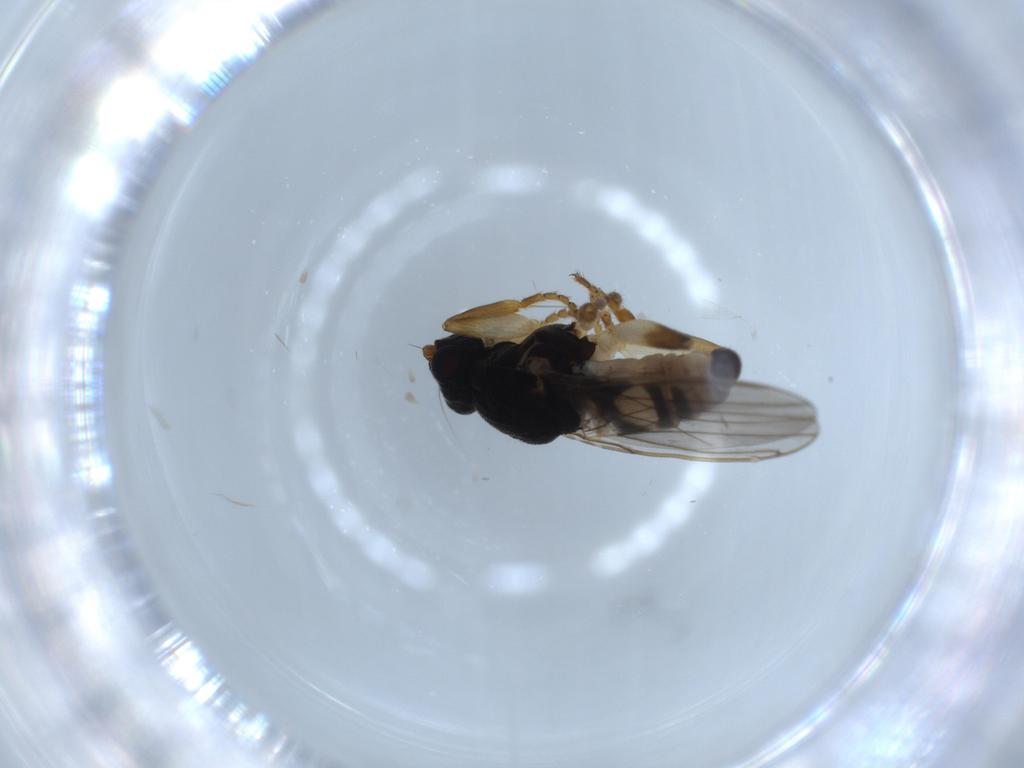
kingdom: Animalia
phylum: Arthropoda
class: Insecta
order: Diptera
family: Sphaeroceridae
